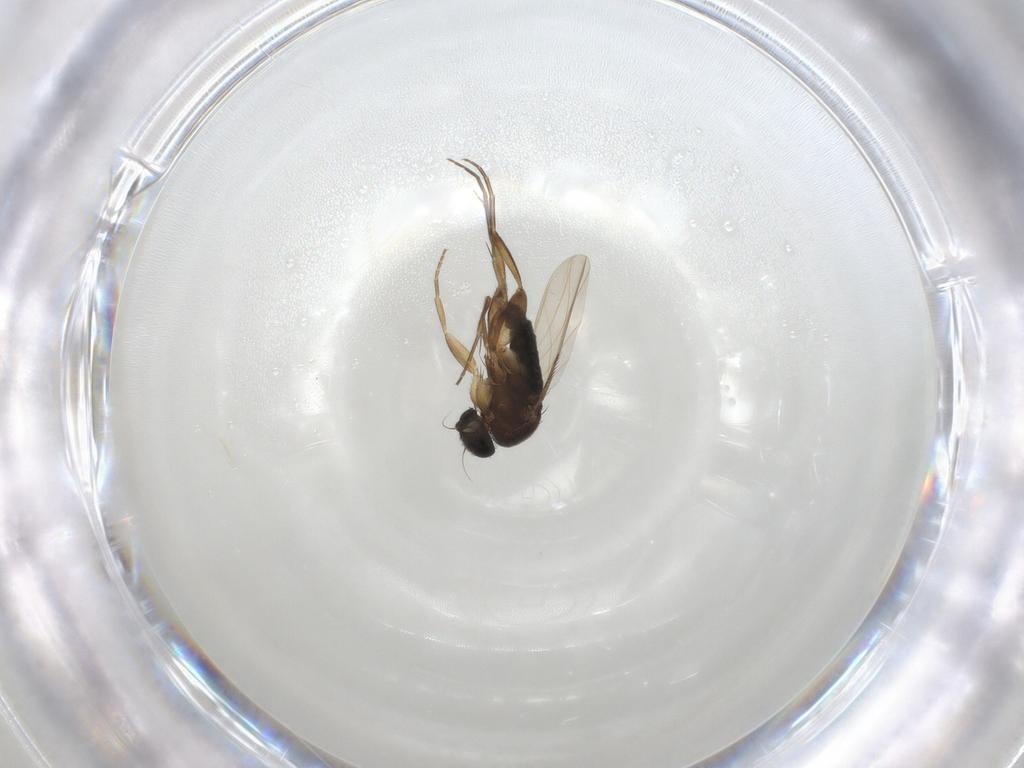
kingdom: Animalia
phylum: Arthropoda
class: Insecta
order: Diptera
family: Phoridae
